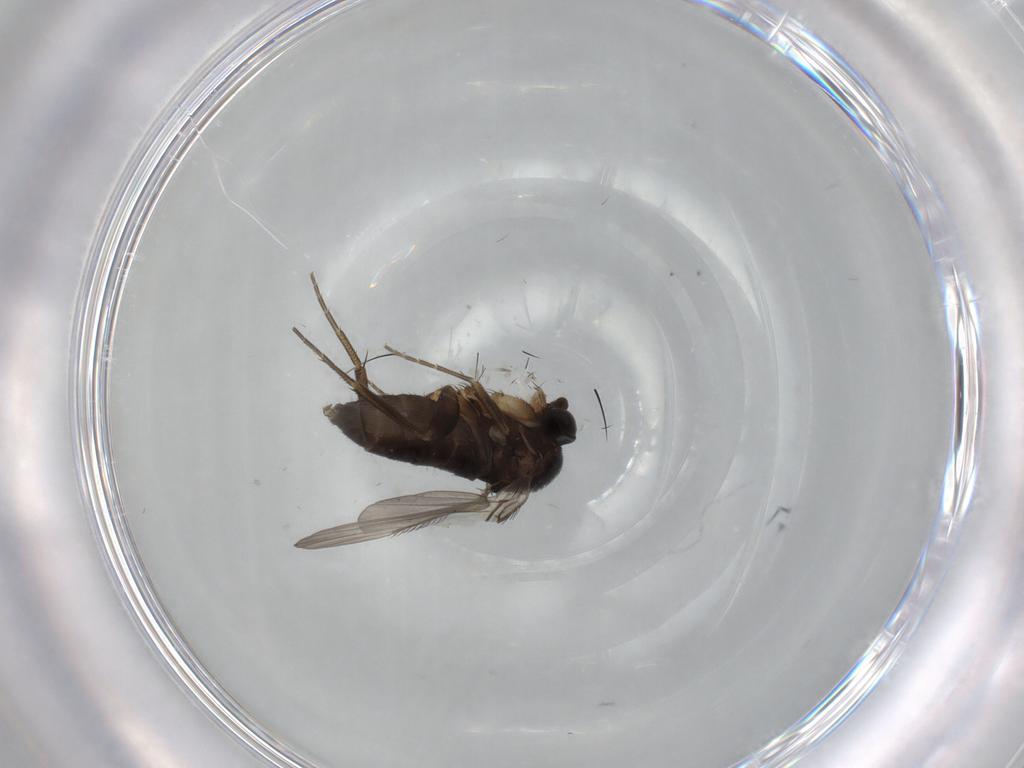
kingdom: Animalia
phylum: Arthropoda
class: Insecta
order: Diptera
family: Phoridae
